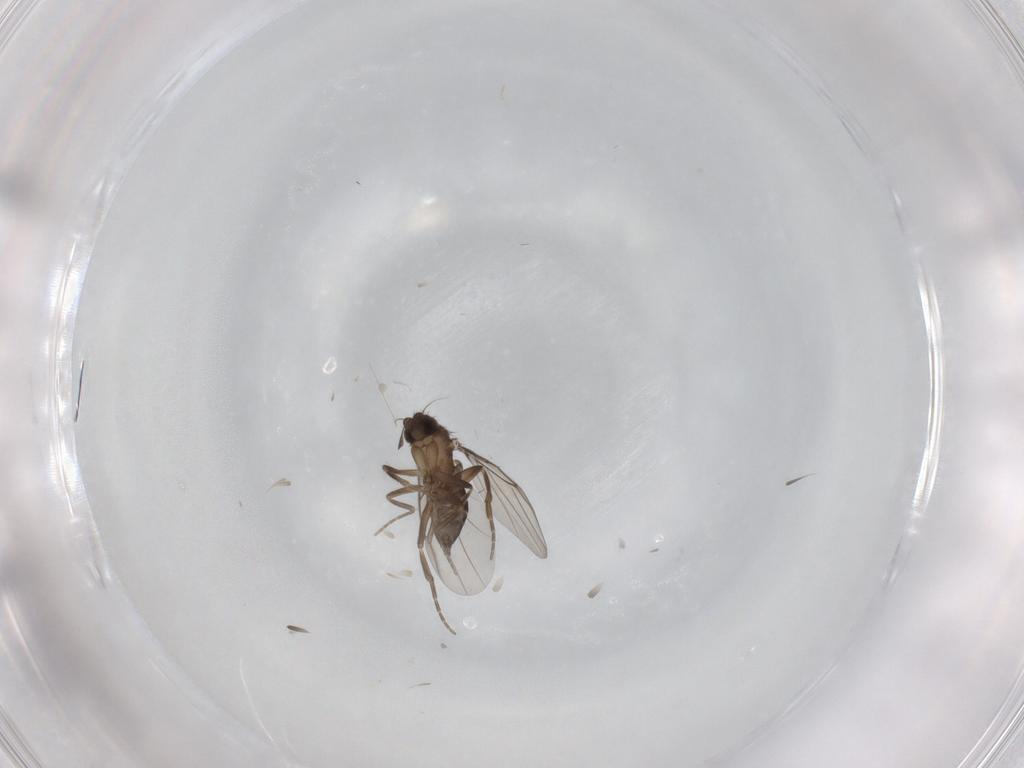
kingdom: Animalia
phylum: Arthropoda
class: Insecta
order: Diptera
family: Phoridae
